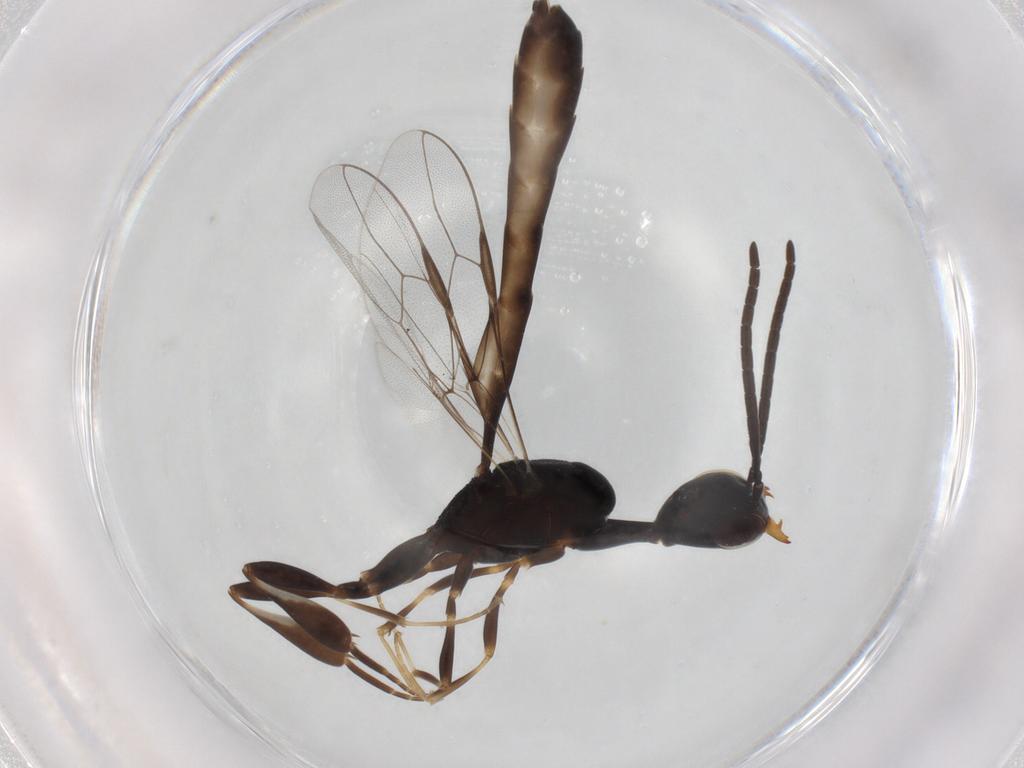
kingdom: Animalia
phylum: Arthropoda
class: Insecta
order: Hymenoptera
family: Gasteruptiidae
